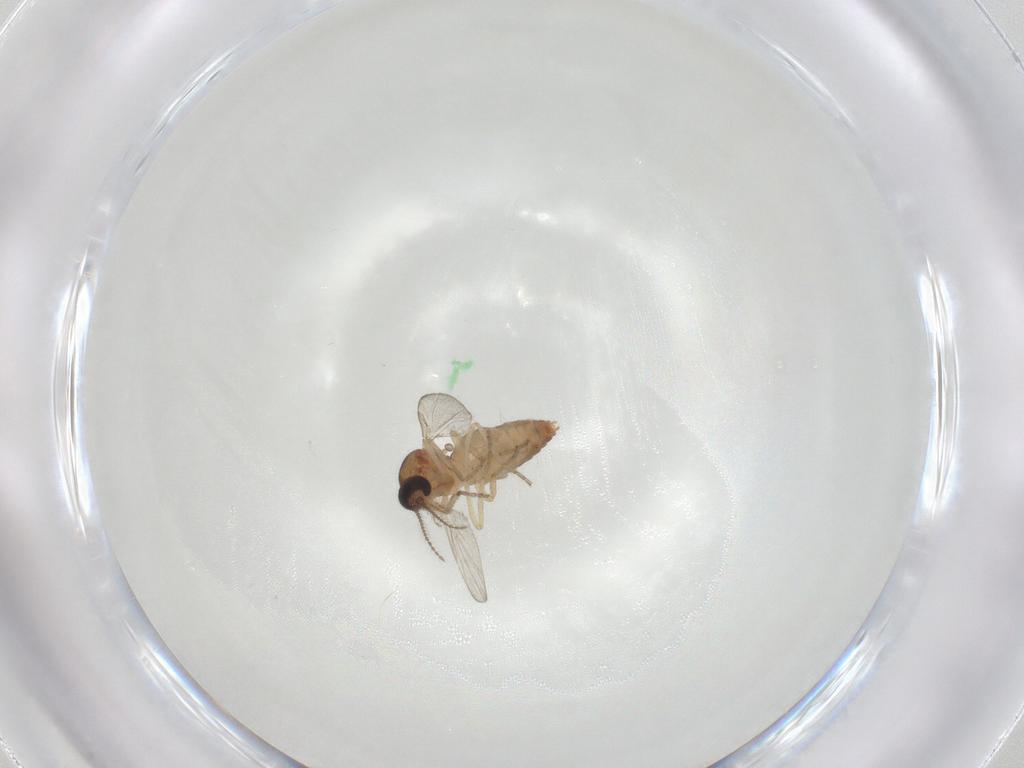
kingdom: Animalia
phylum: Arthropoda
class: Insecta
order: Diptera
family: Ceratopogonidae
